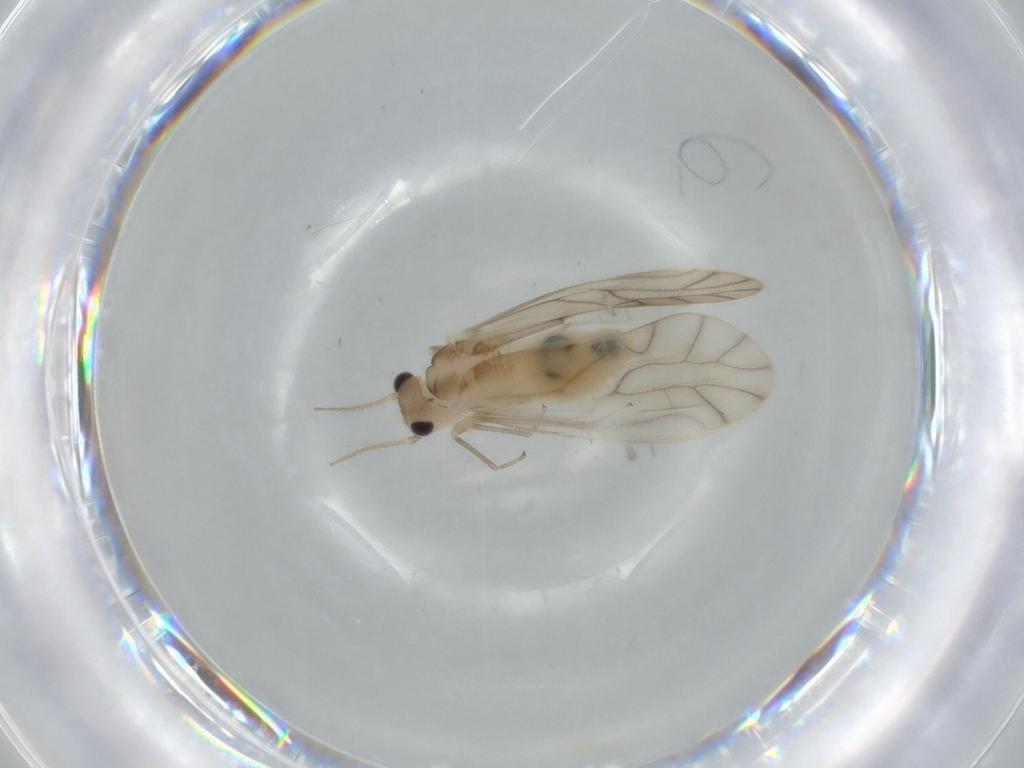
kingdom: Animalia
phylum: Arthropoda
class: Insecta
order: Psocodea
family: Caeciliusidae
